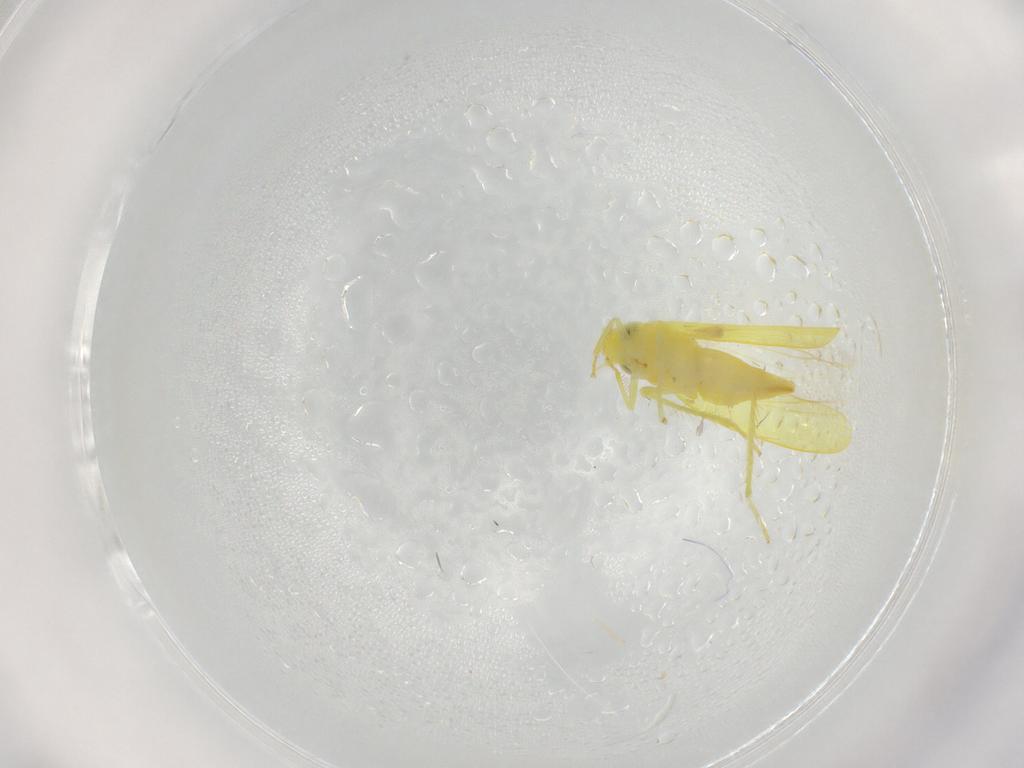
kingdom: Animalia
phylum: Arthropoda
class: Insecta
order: Hemiptera
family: Cicadellidae
